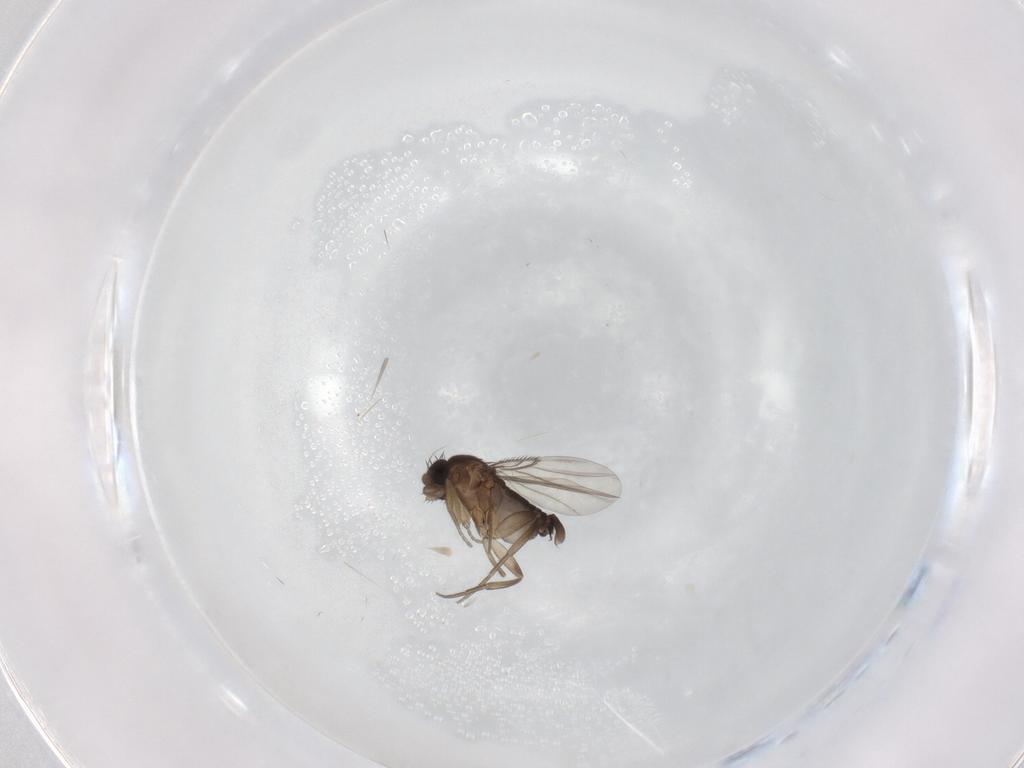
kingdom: Animalia
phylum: Arthropoda
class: Insecta
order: Diptera
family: Phoridae
